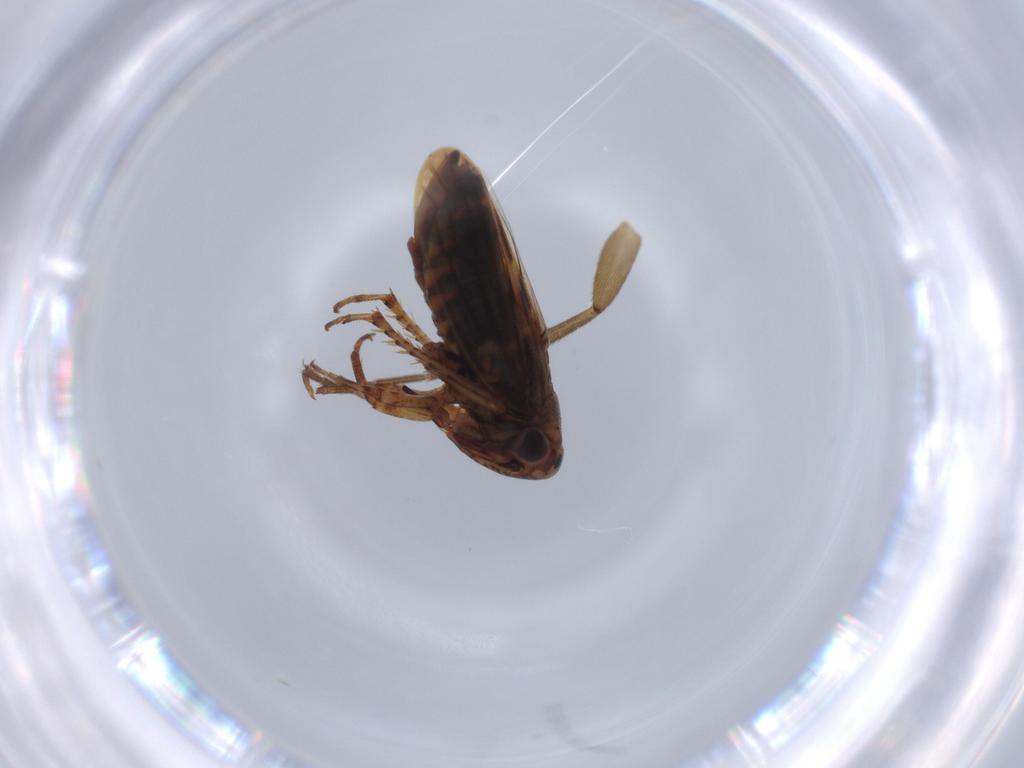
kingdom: Animalia
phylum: Arthropoda
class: Insecta
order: Hemiptera
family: Cicadellidae
